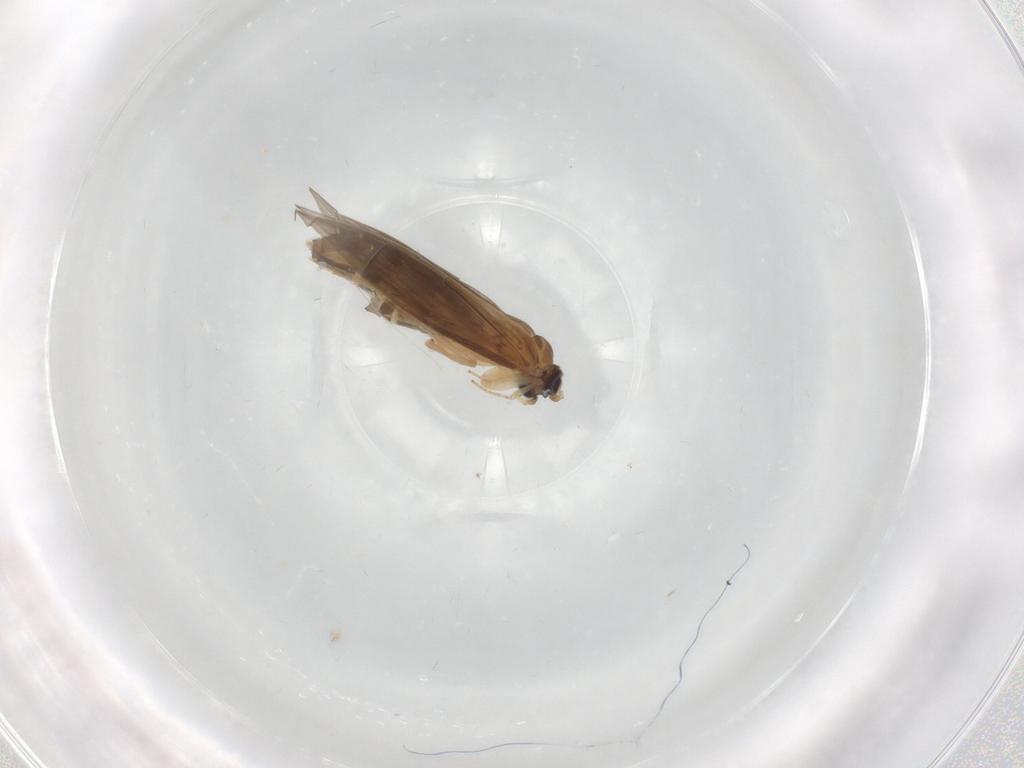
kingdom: Animalia
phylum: Arthropoda
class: Insecta
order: Trichoptera
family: Hydroptilidae
